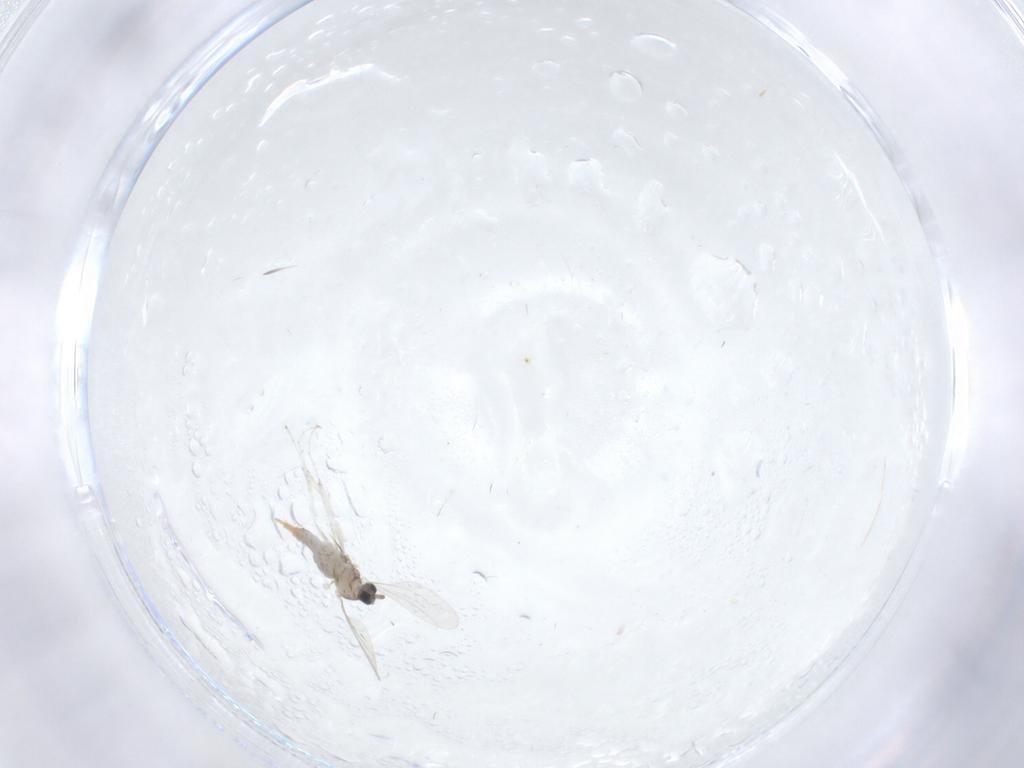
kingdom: Animalia
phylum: Arthropoda
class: Insecta
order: Diptera
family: Cecidomyiidae
